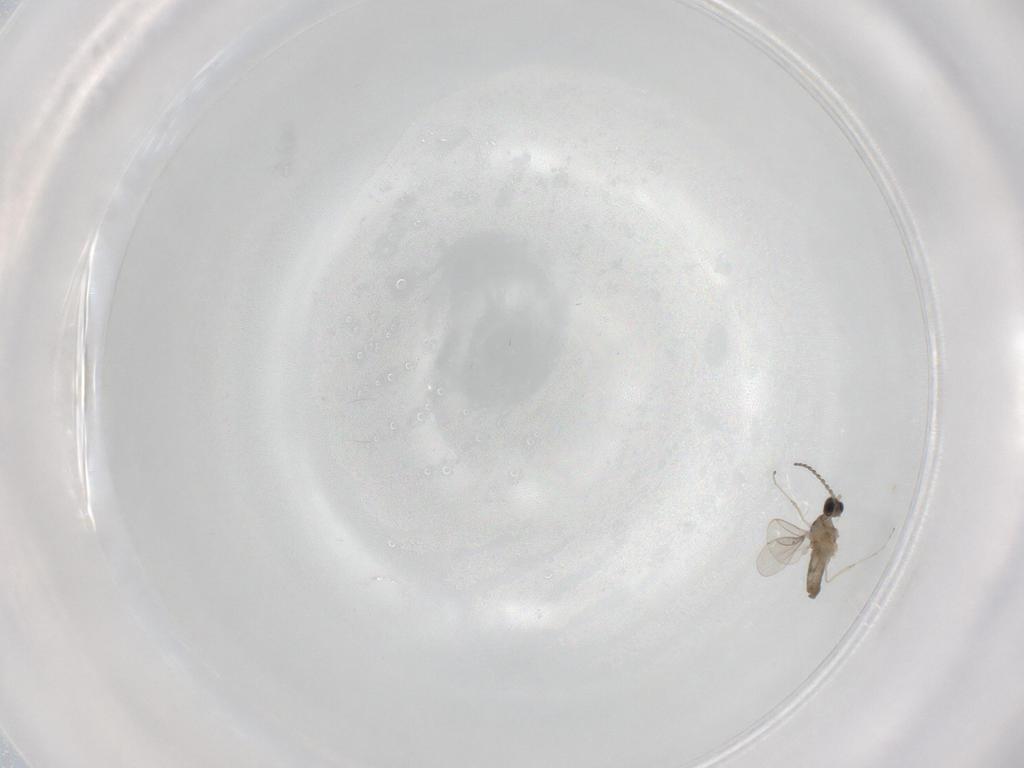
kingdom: Animalia
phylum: Arthropoda
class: Insecta
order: Diptera
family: Cecidomyiidae
